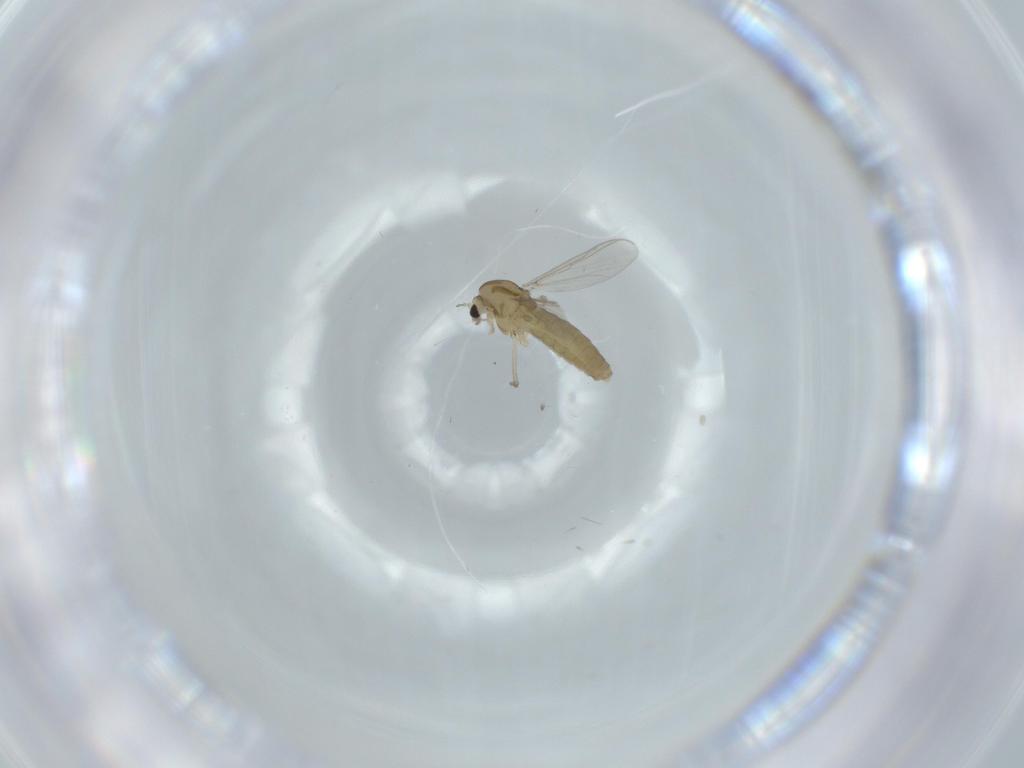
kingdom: Animalia
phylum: Arthropoda
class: Insecta
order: Diptera
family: Chironomidae
